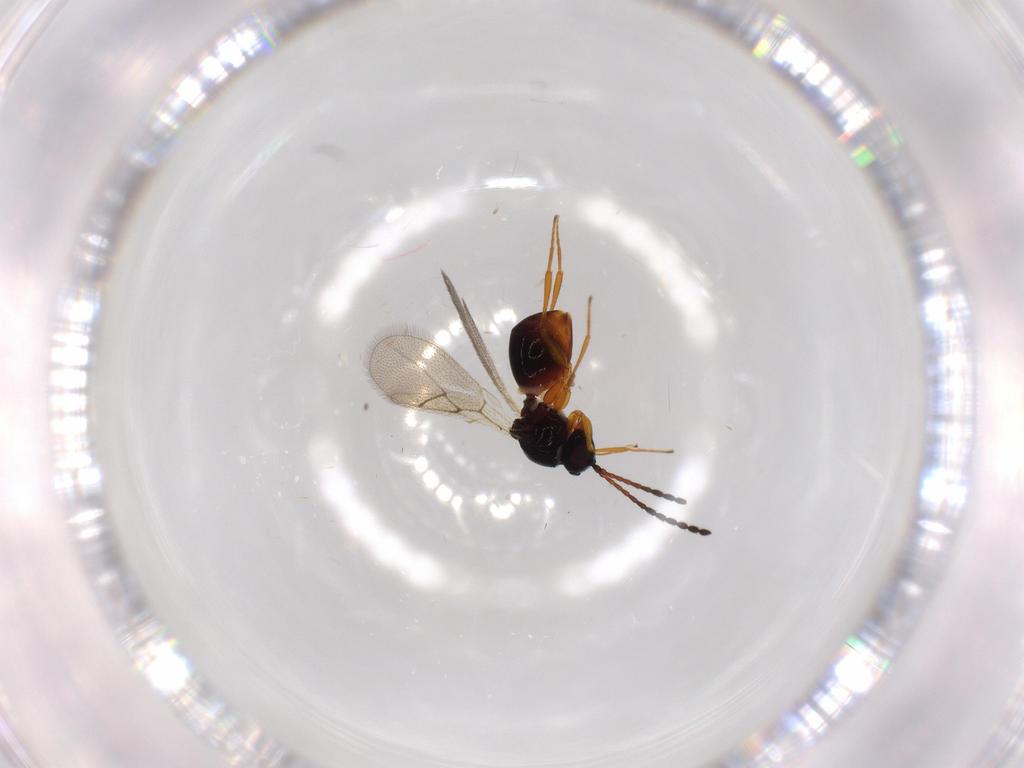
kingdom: Animalia
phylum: Arthropoda
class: Insecta
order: Hymenoptera
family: Figitidae
